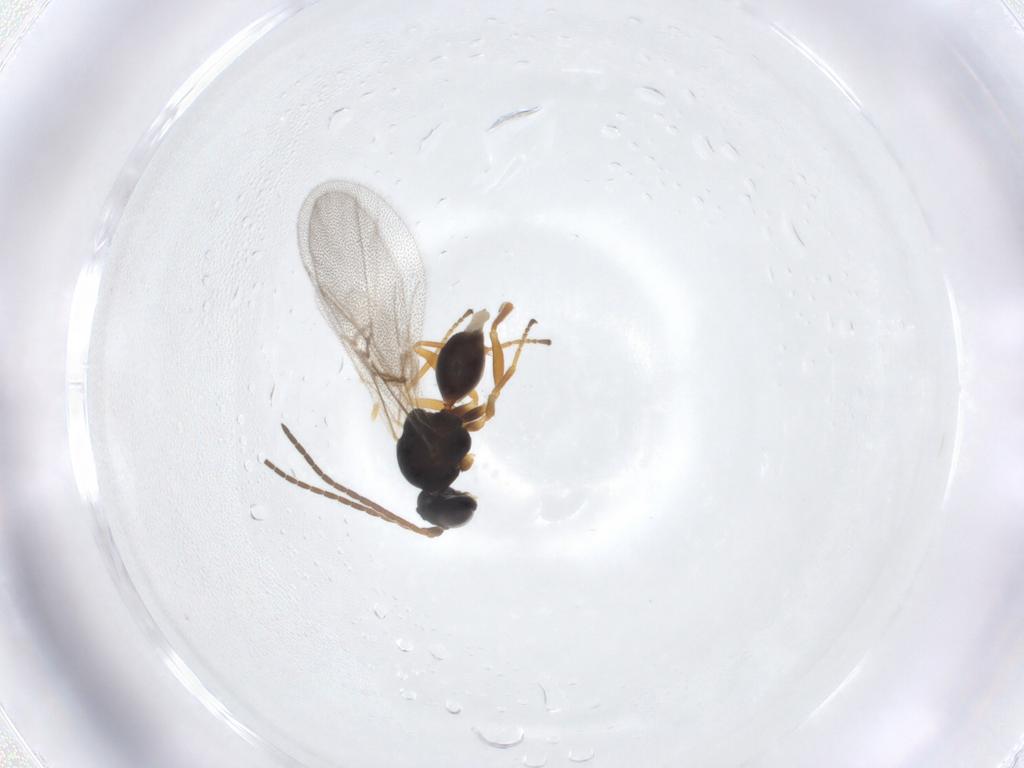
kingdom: Animalia
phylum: Arthropoda
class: Insecta
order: Hymenoptera
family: Cynipidae
